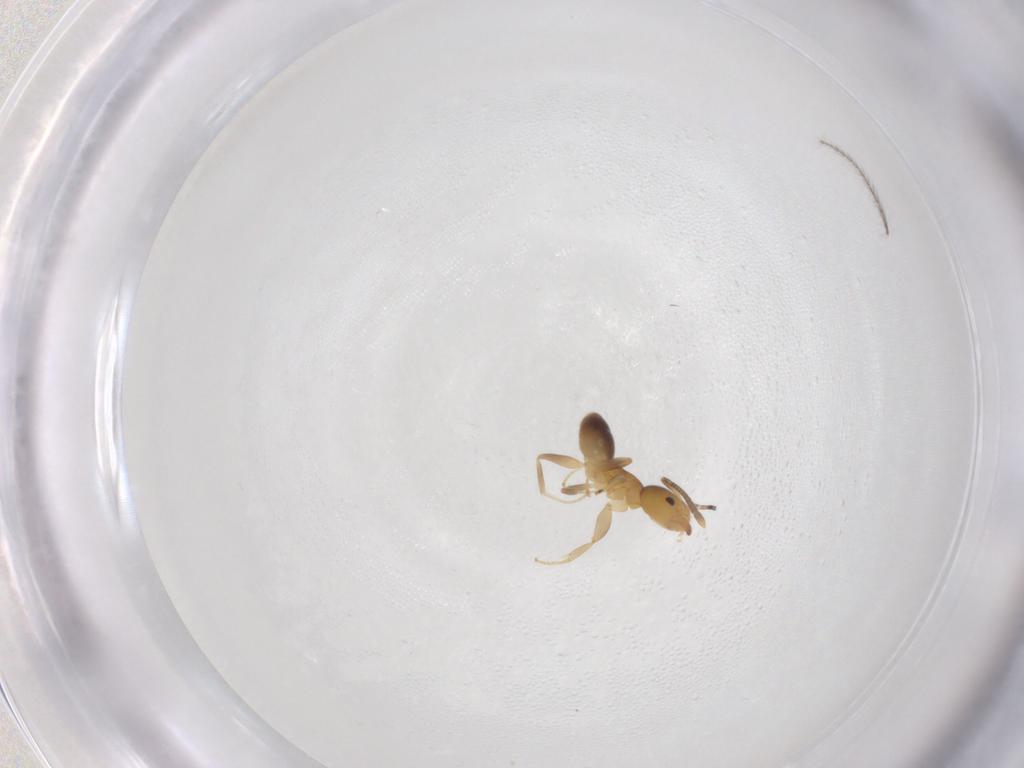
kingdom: Animalia
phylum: Arthropoda
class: Insecta
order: Diptera
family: Psychodidae
